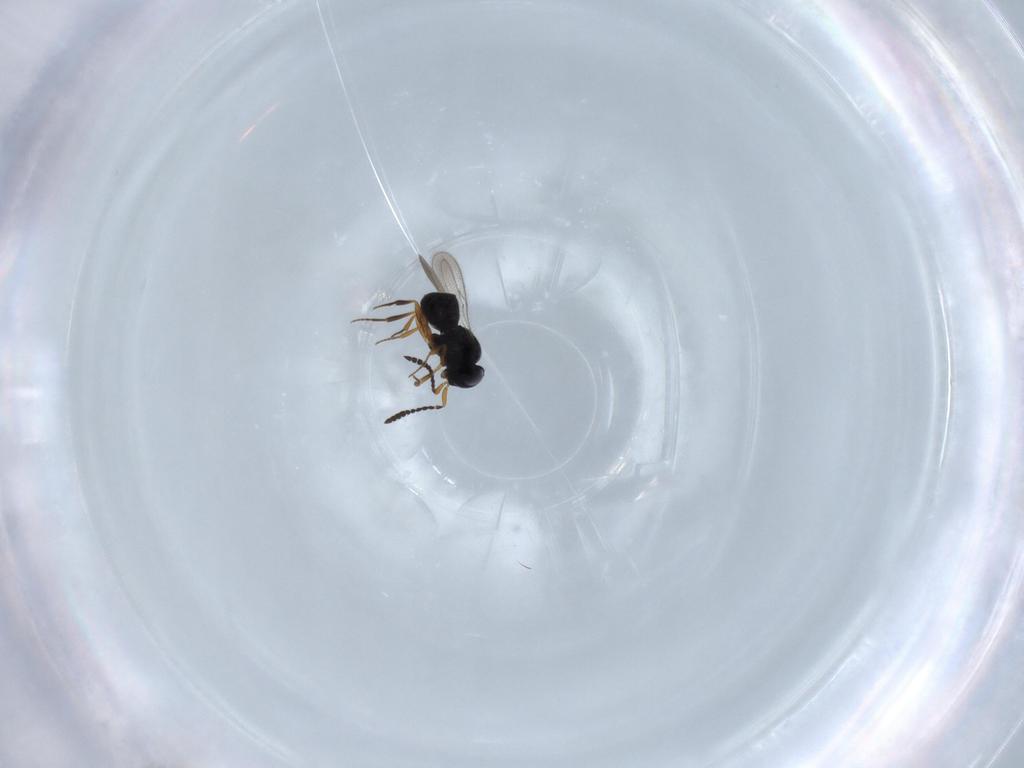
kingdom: Animalia
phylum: Arthropoda
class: Insecta
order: Hymenoptera
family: Scelionidae
